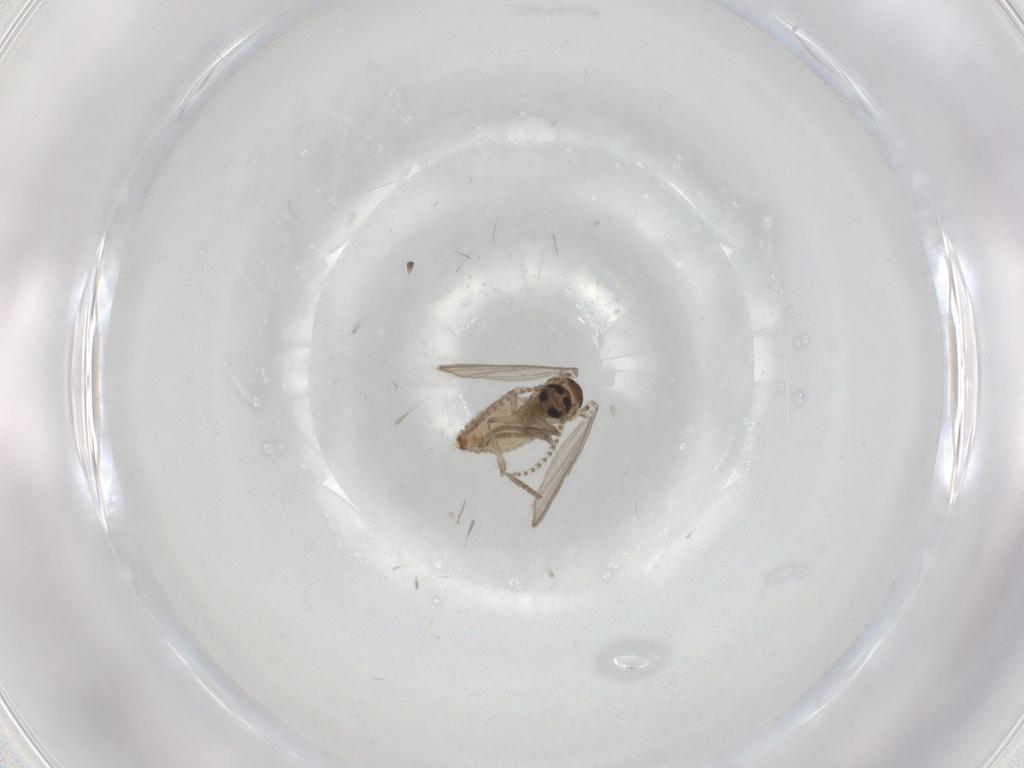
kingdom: Animalia
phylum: Arthropoda
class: Insecta
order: Diptera
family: Psychodidae
